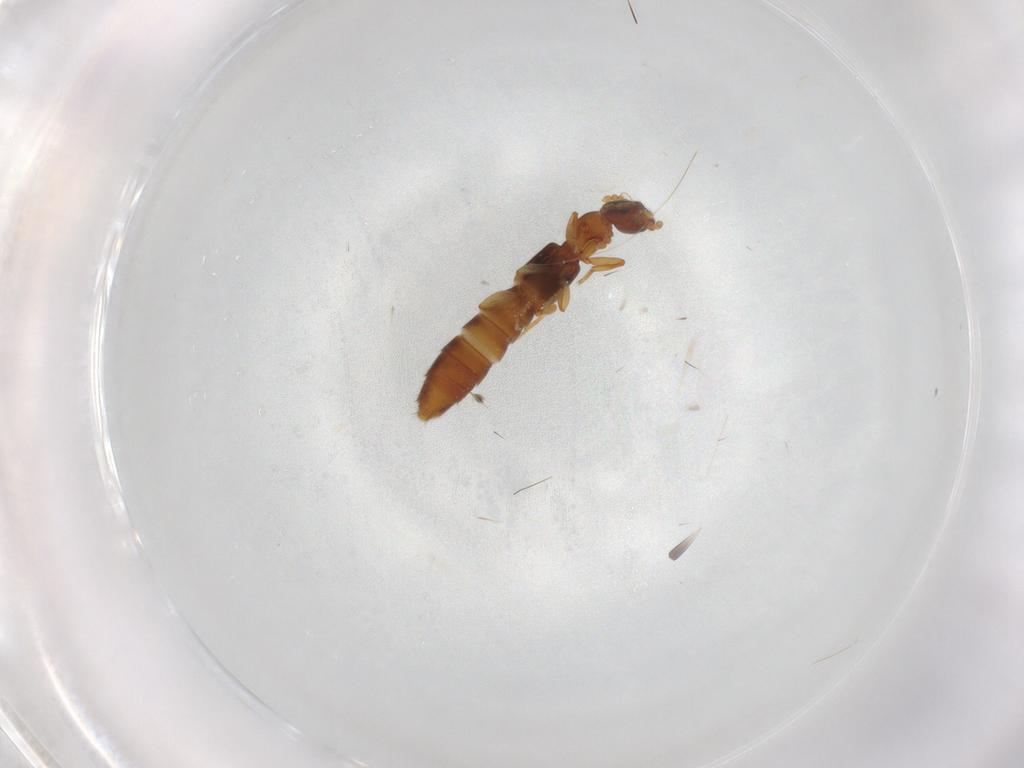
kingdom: Animalia
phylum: Arthropoda
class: Insecta
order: Coleoptera
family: Staphylinidae
